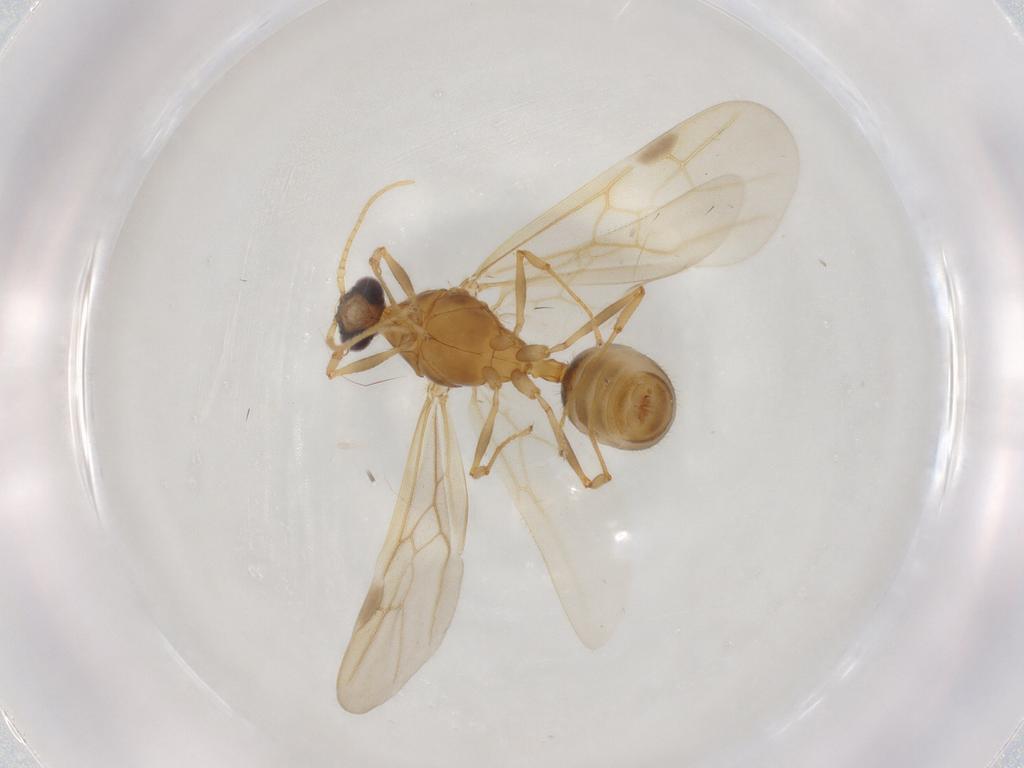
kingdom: Animalia
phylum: Arthropoda
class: Insecta
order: Hymenoptera
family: Formicidae
